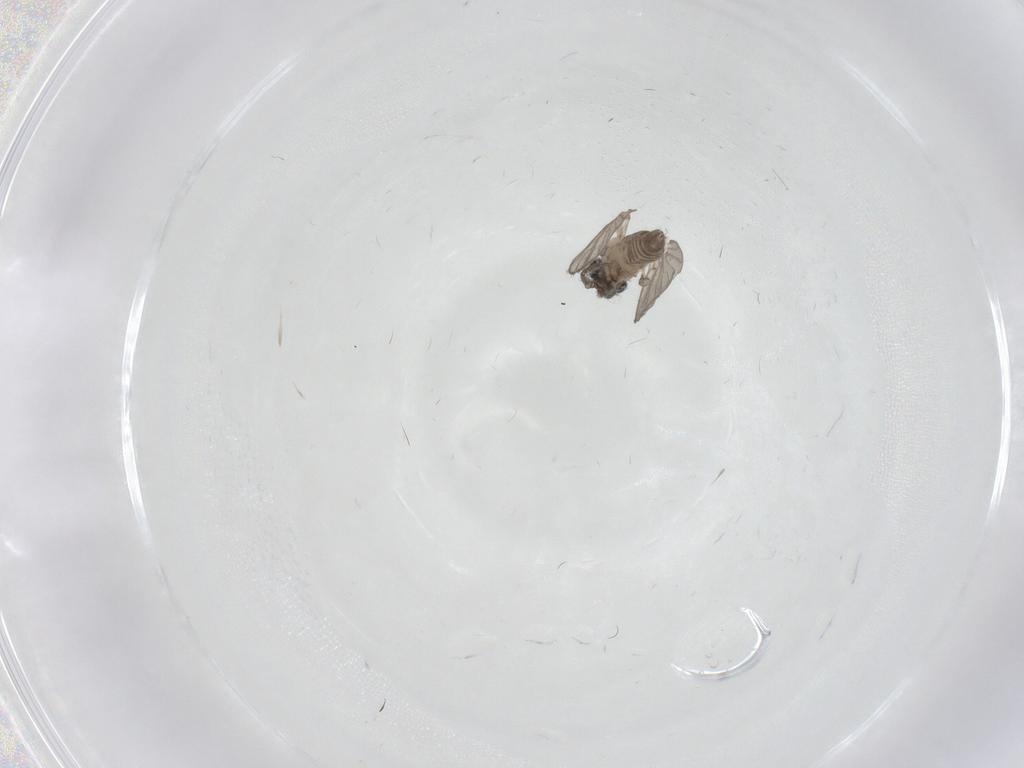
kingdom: Animalia
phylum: Arthropoda
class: Insecta
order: Diptera
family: Psychodidae
